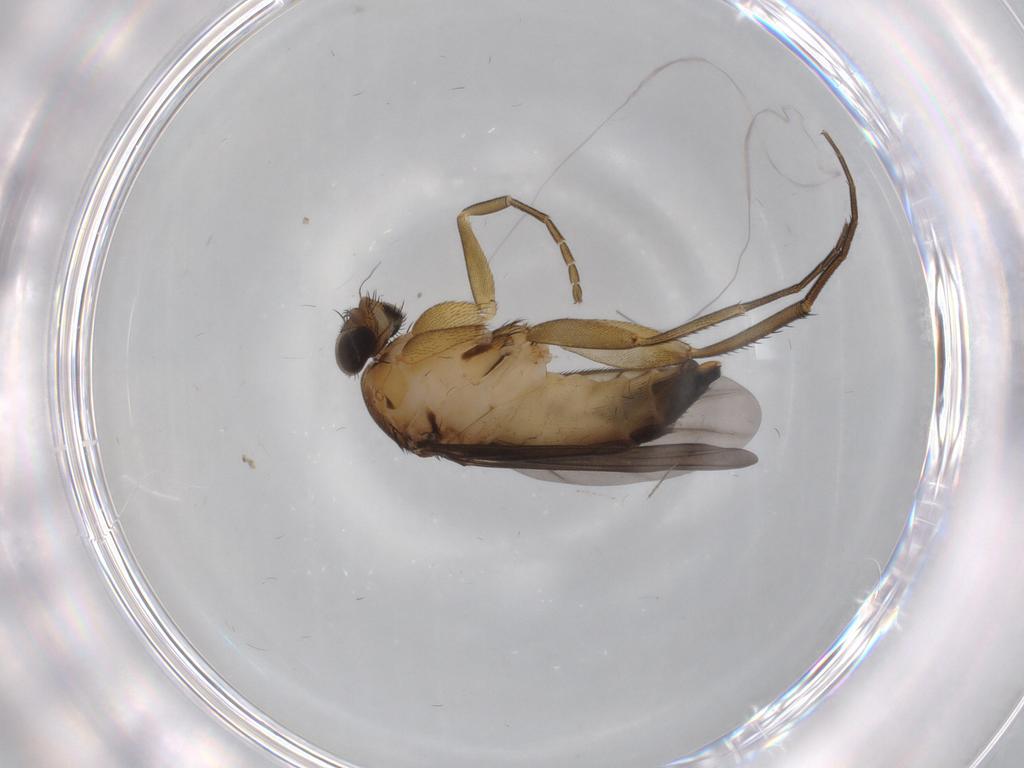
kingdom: Animalia
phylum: Arthropoda
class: Insecta
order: Diptera
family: Phoridae
